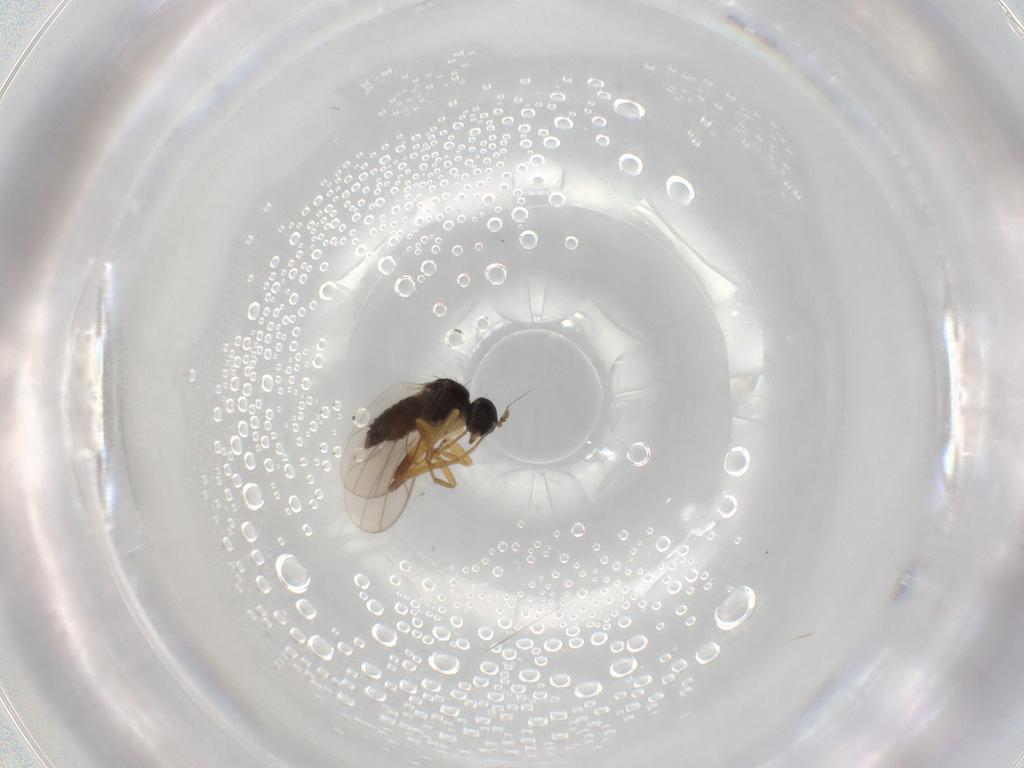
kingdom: Animalia
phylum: Arthropoda
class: Insecta
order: Diptera
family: Hybotidae
